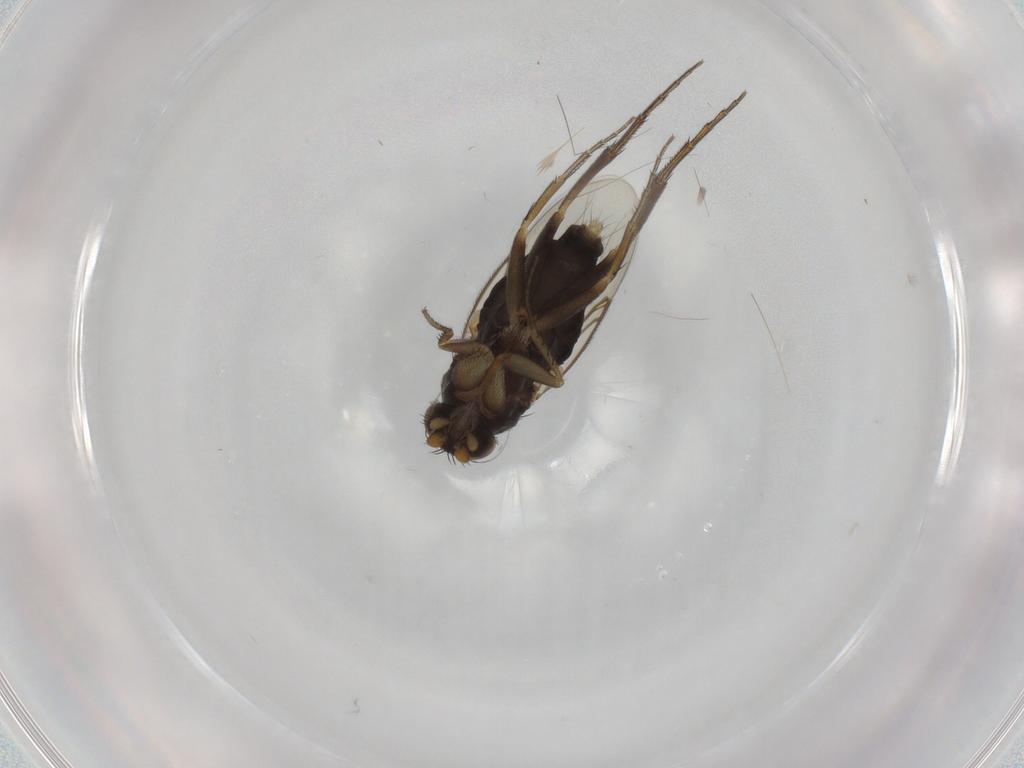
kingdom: Animalia
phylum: Arthropoda
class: Insecta
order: Diptera
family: Phoridae
